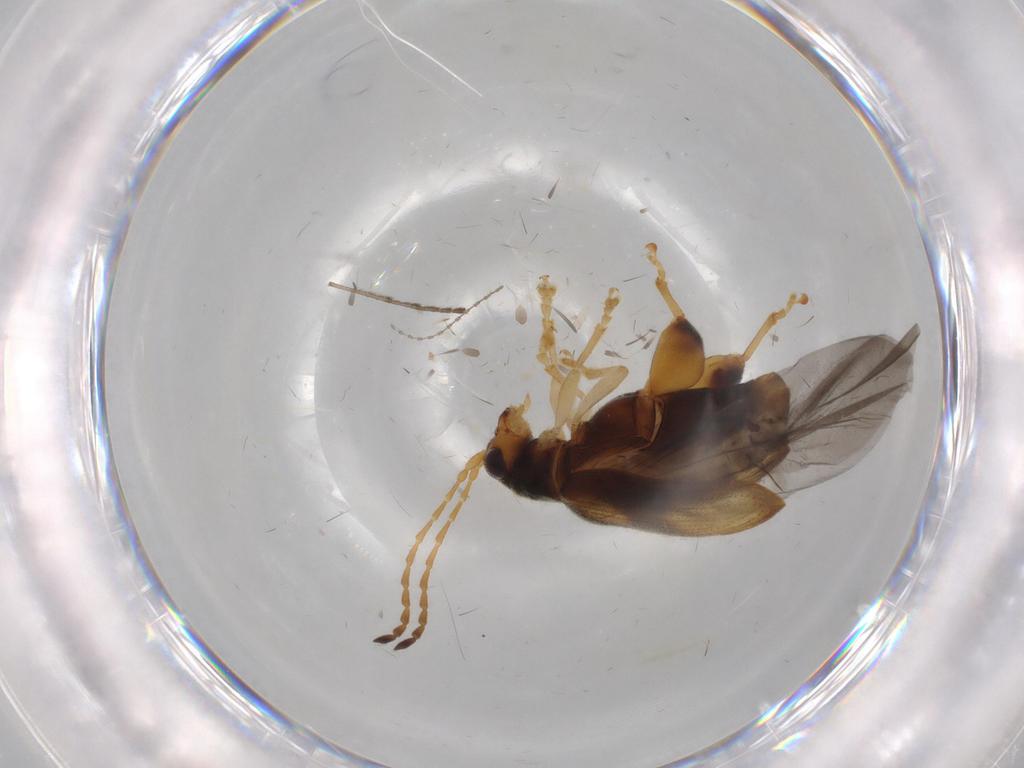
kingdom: Animalia
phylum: Arthropoda
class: Insecta
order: Coleoptera
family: Chrysomelidae
